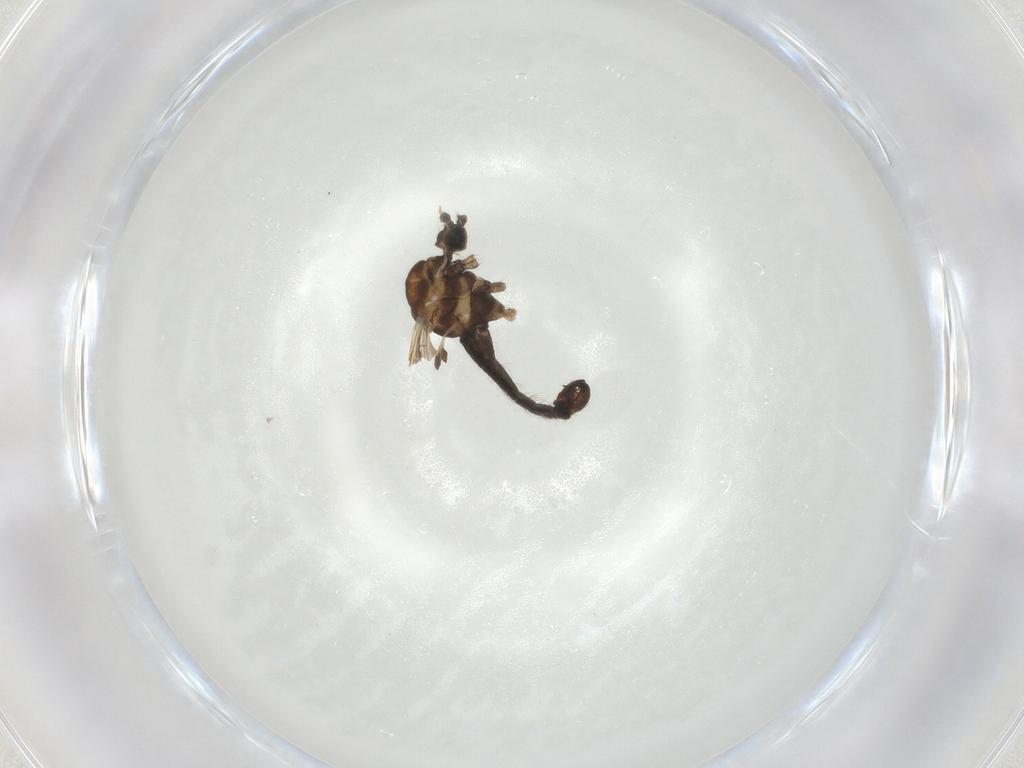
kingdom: Animalia
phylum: Arthropoda
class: Insecta
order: Diptera
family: Limoniidae
